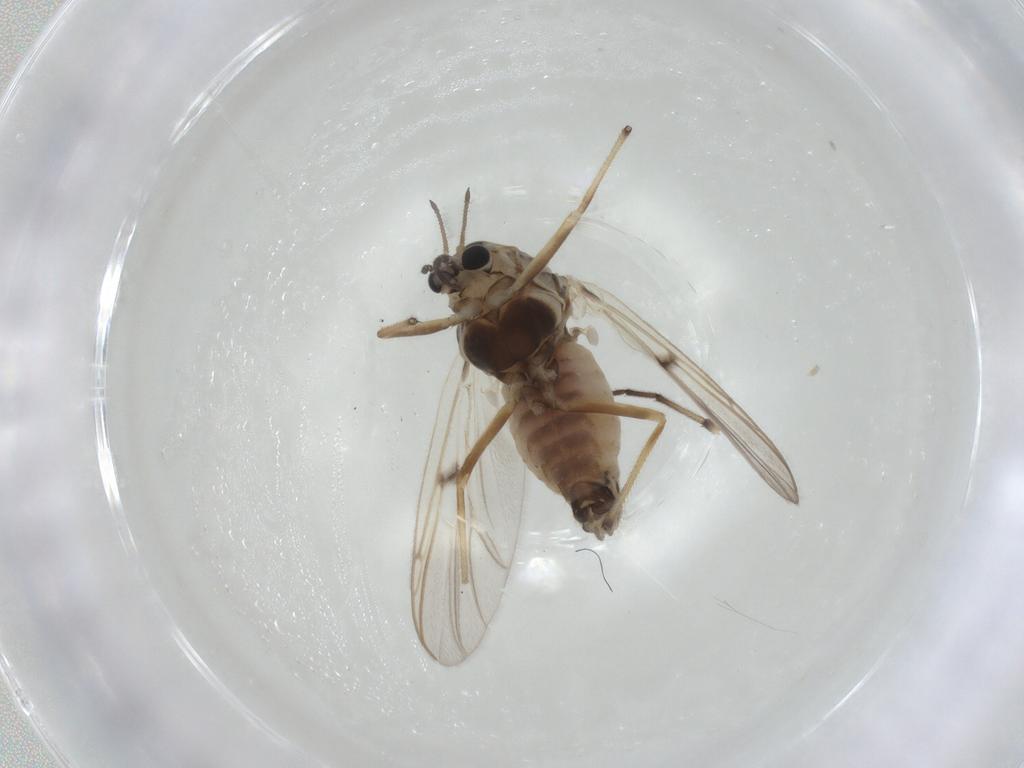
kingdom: Animalia
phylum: Arthropoda
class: Insecta
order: Diptera
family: Chironomidae
